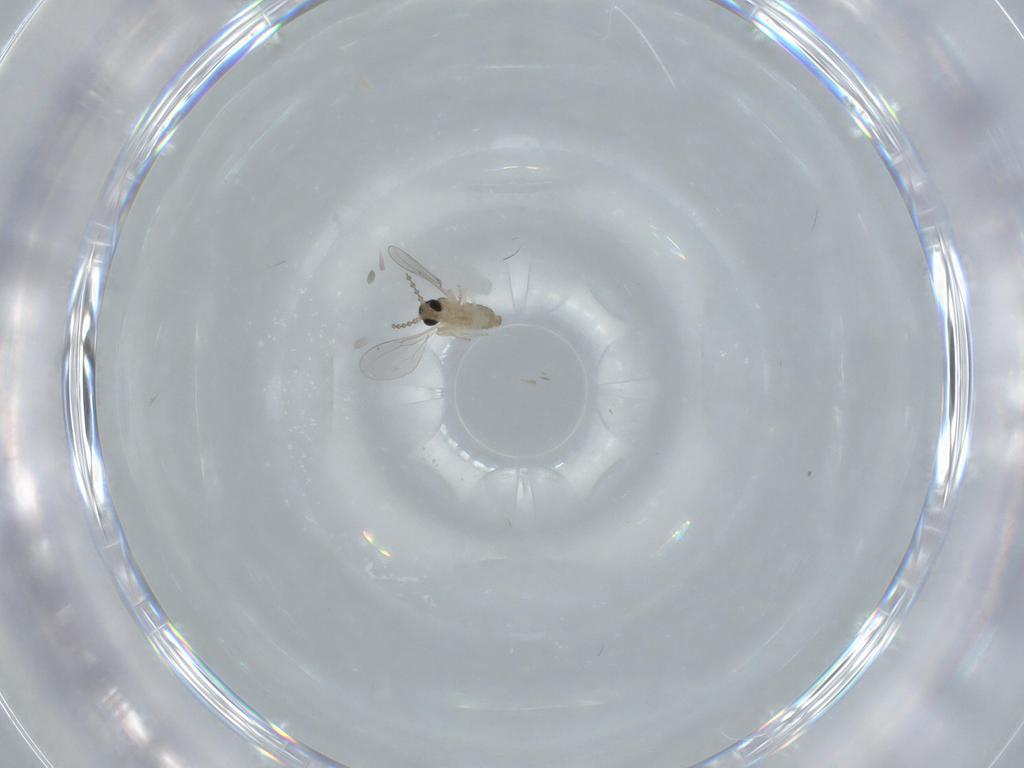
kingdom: Animalia
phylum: Arthropoda
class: Insecta
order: Diptera
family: Cecidomyiidae
